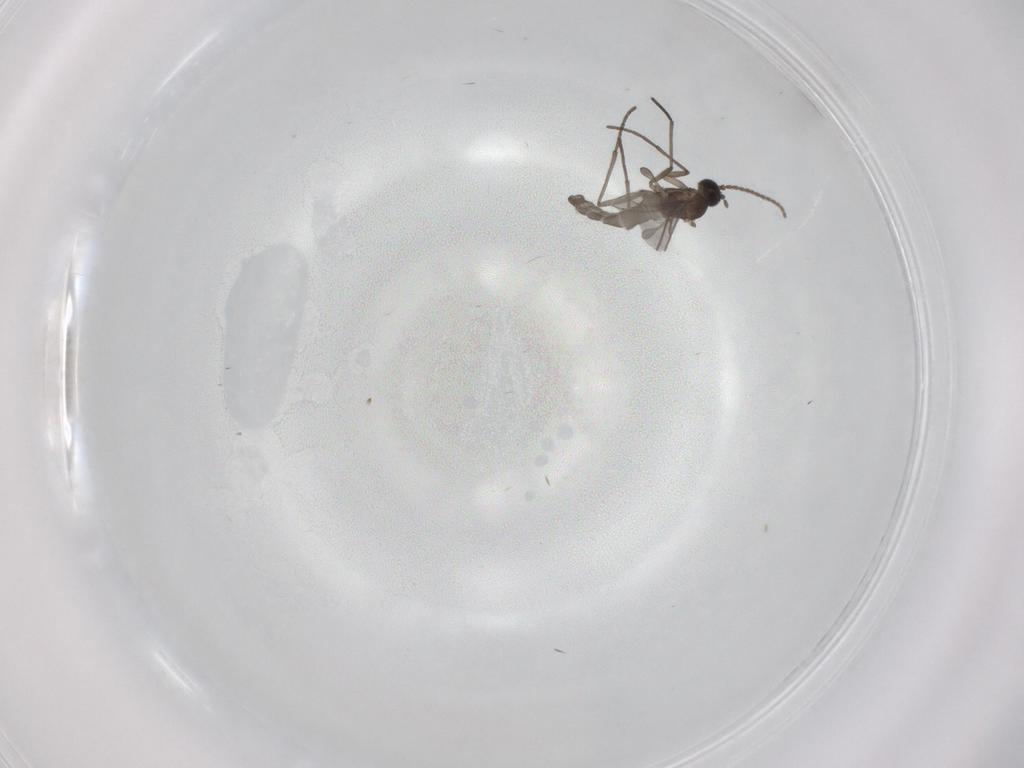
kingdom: Animalia
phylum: Arthropoda
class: Insecta
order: Diptera
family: Sciaridae
